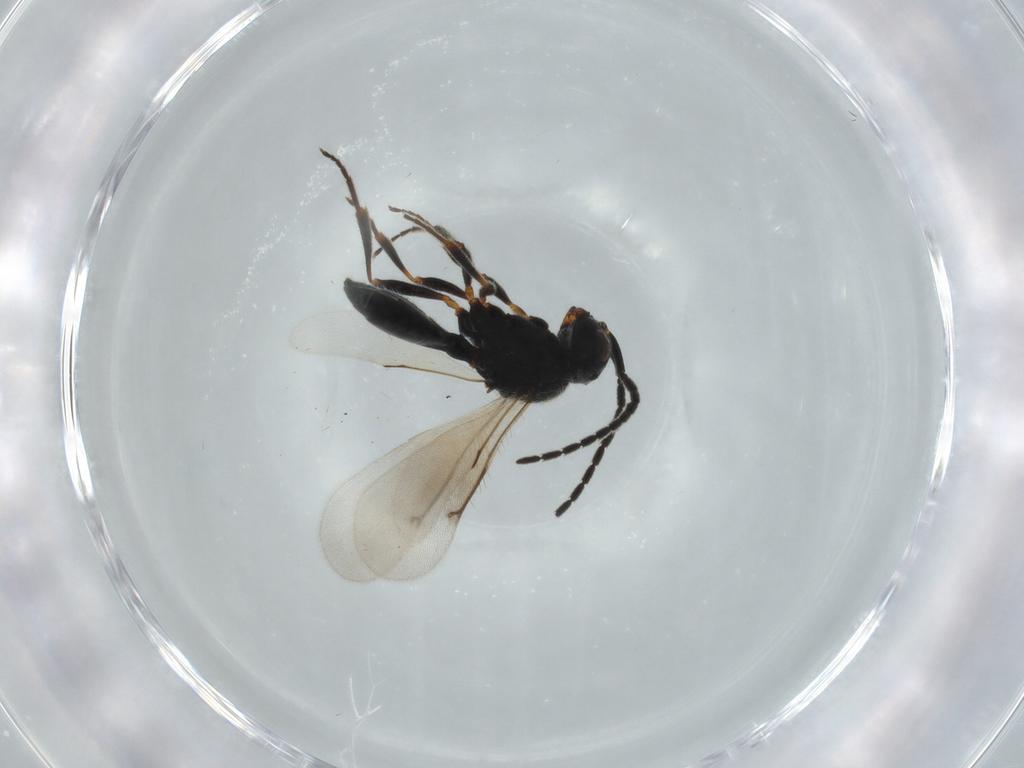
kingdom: Animalia
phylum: Arthropoda
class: Insecta
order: Hymenoptera
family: Scelionidae
